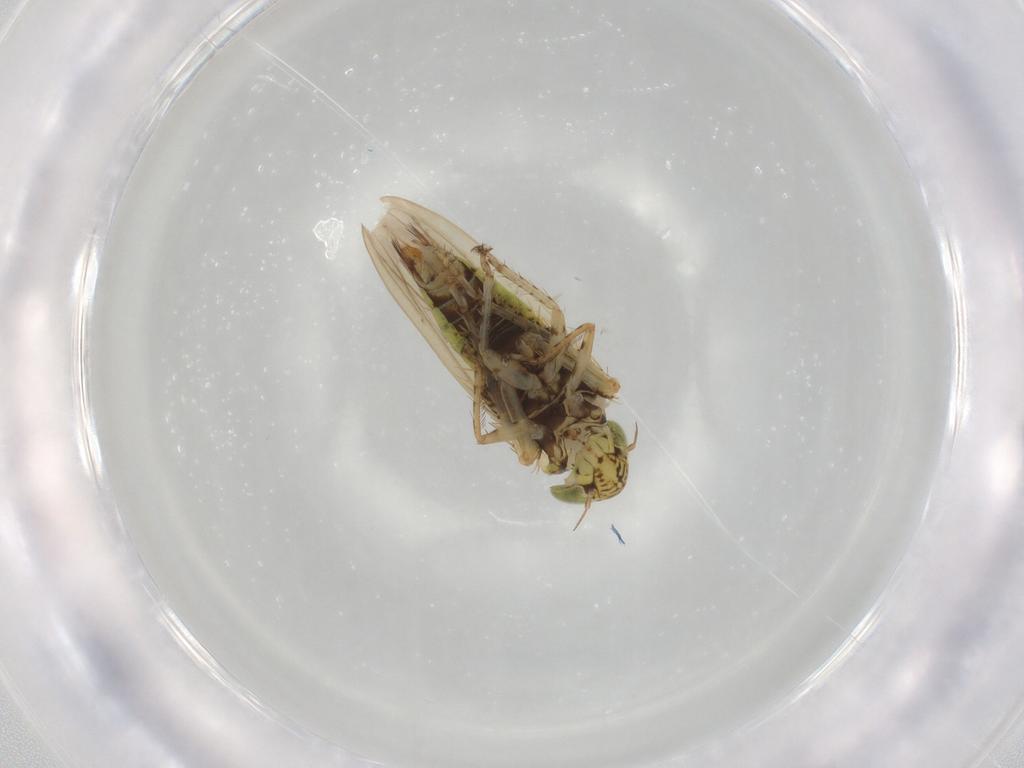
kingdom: Animalia
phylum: Arthropoda
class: Insecta
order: Hemiptera
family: Cicadellidae
